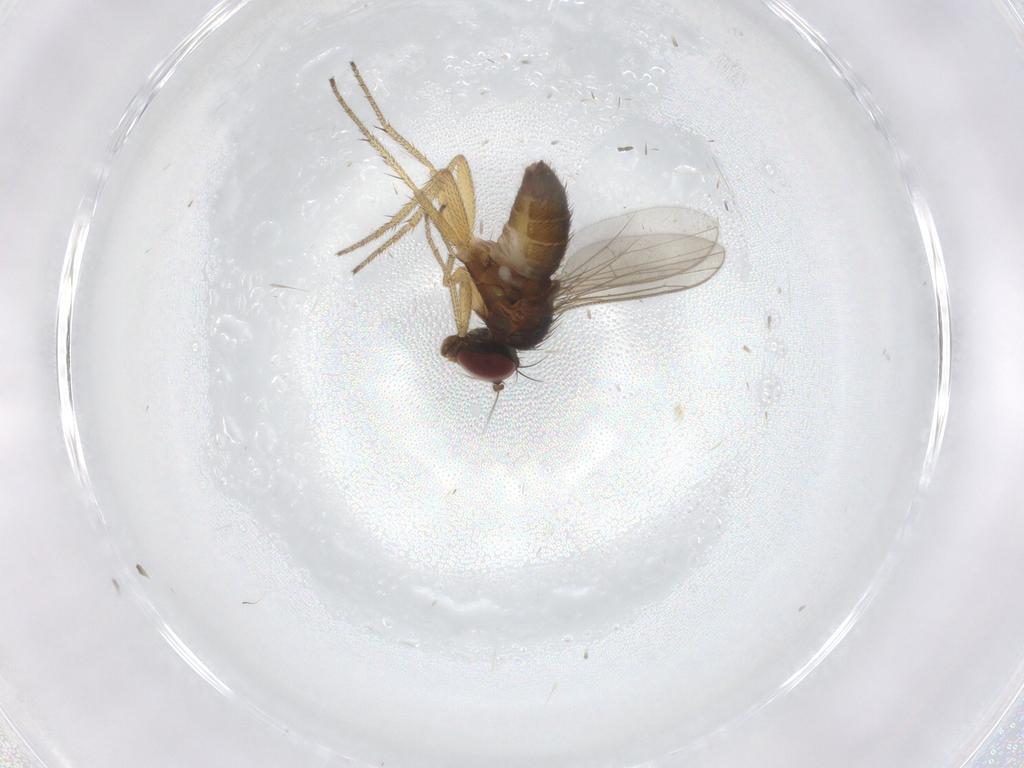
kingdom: Animalia
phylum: Arthropoda
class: Insecta
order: Diptera
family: Dolichopodidae
